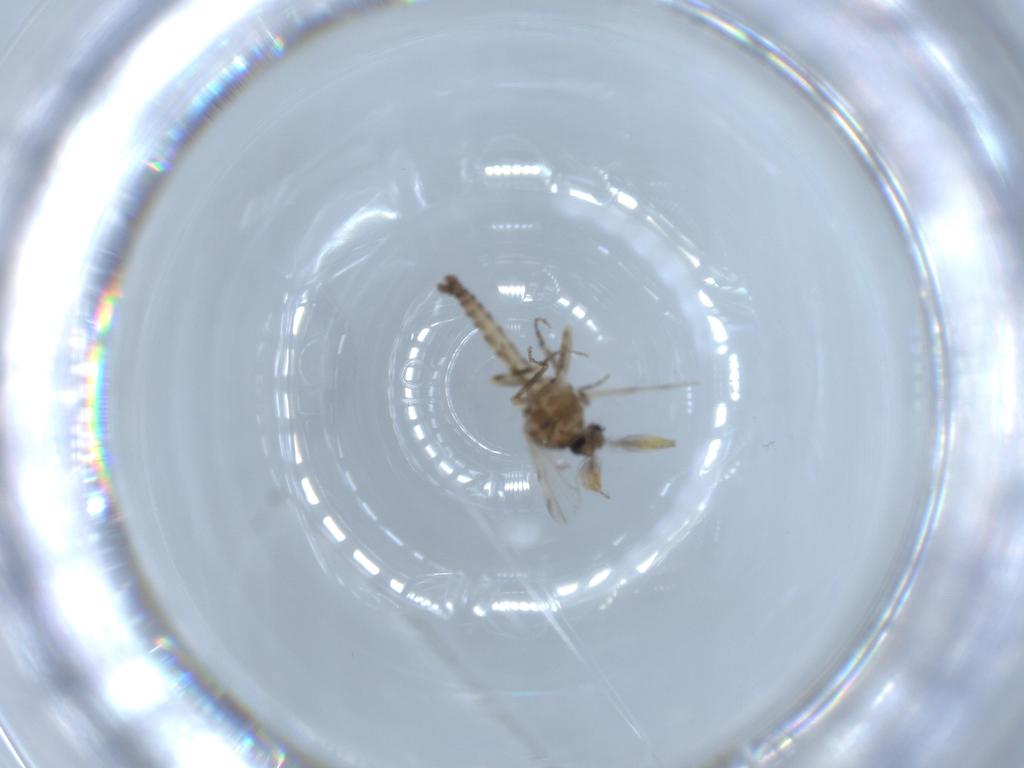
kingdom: Animalia
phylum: Arthropoda
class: Insecta
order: Diptera
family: Ceratopogonidae
